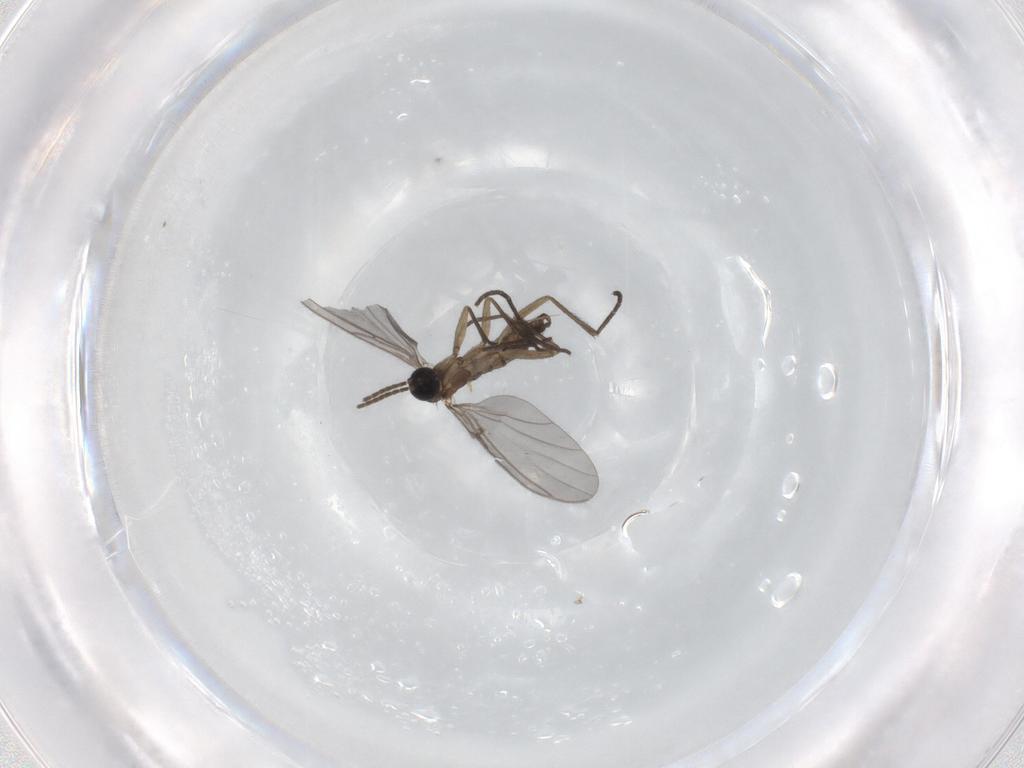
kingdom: Animalia
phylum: Arthropoda
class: Insecta
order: Diptera
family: Sciaridae
